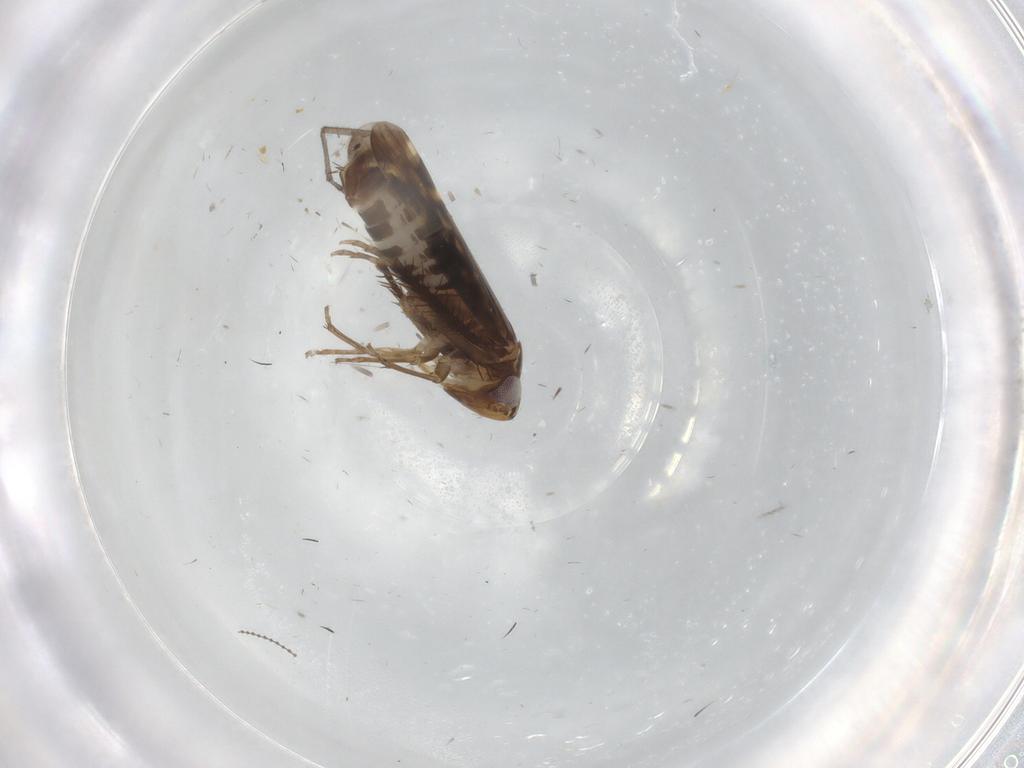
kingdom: Animalia
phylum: Arthropoda
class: Insecta
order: Hemiptera
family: Cicadellidae
